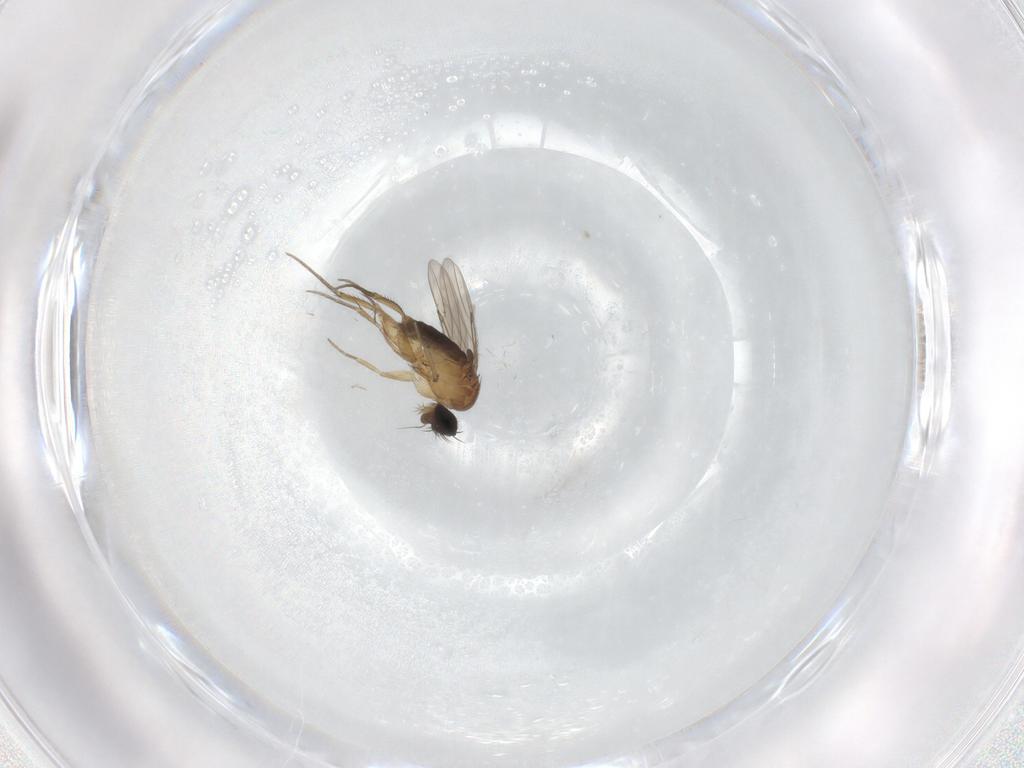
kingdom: Animalia
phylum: Arthropoda
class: Insecta
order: Diptera
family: Phoridae
